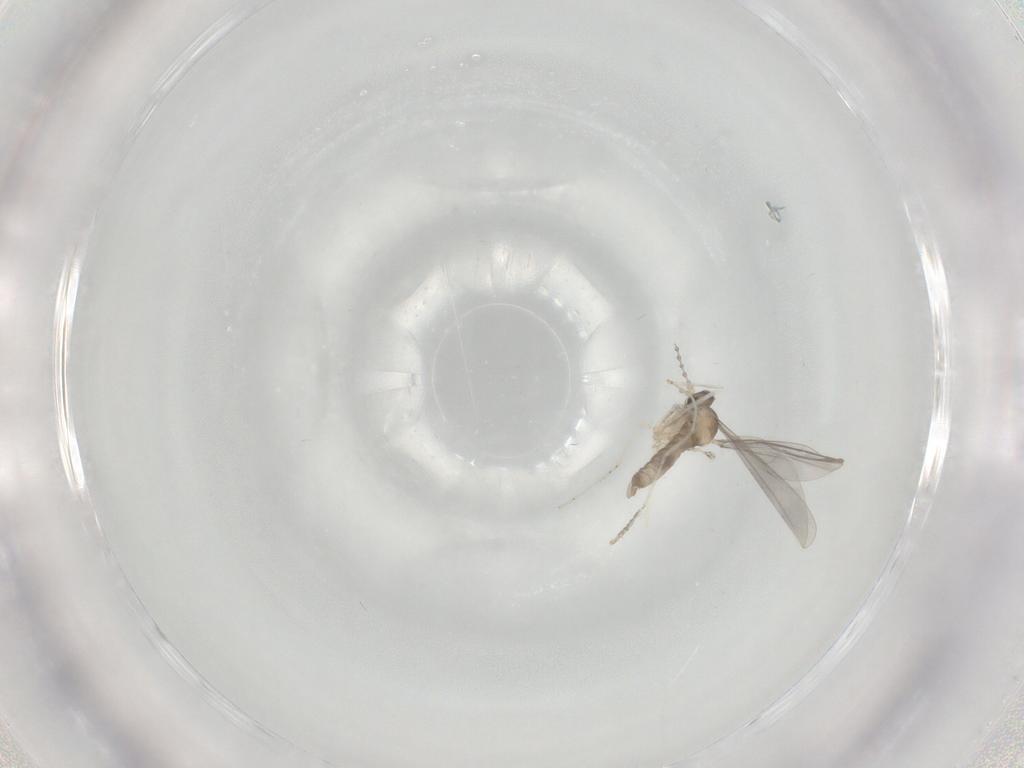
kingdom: Animalia
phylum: Arthropoda
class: Insecta
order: Diptera
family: Cecidomyiidae
